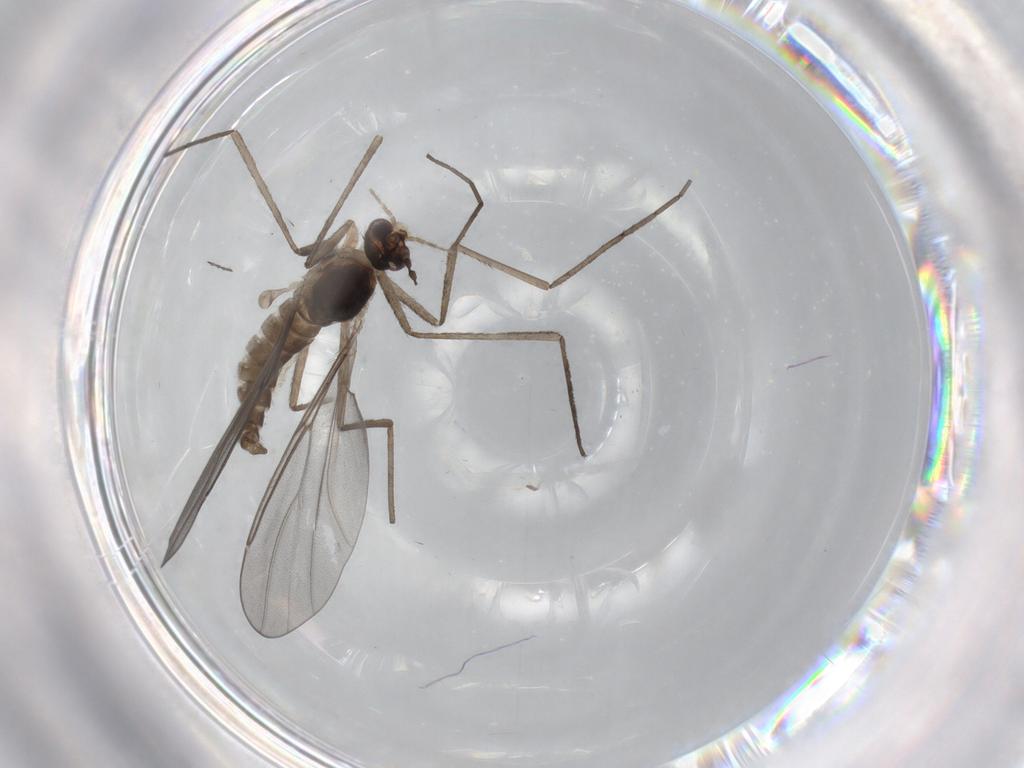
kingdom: Animalia
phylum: Arthropoda
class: Insecta
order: Diptera
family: Cecidomyiidae
